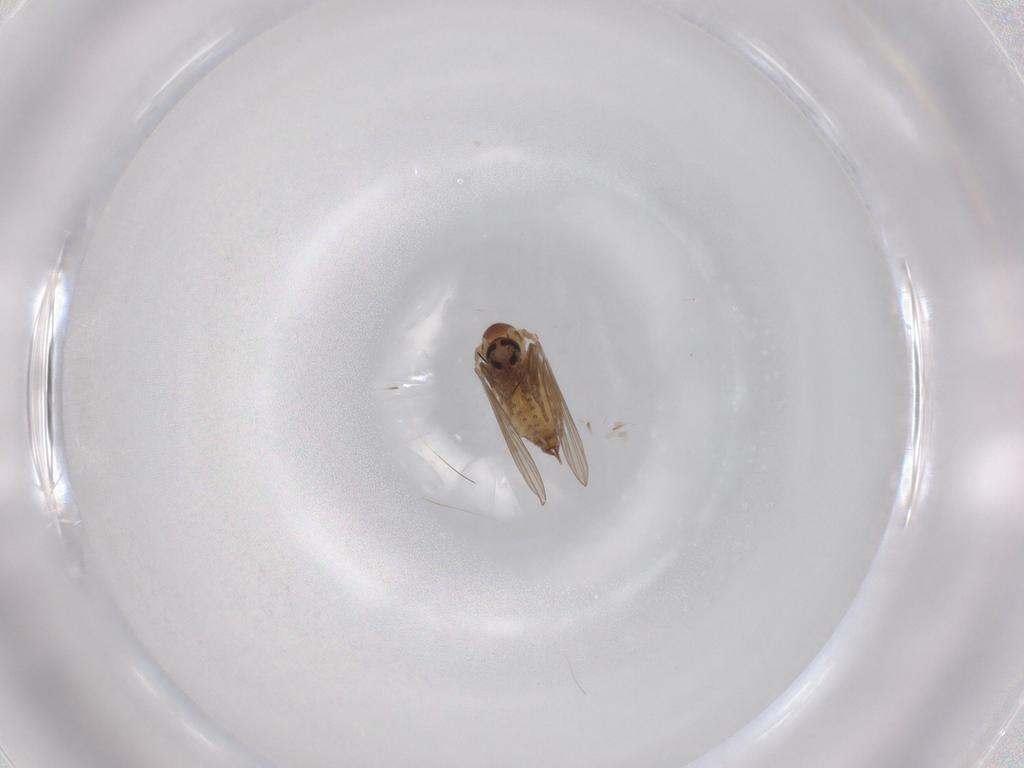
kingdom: Animalia
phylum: Arthropoda
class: Insecta
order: Diptera
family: Psychodidae
